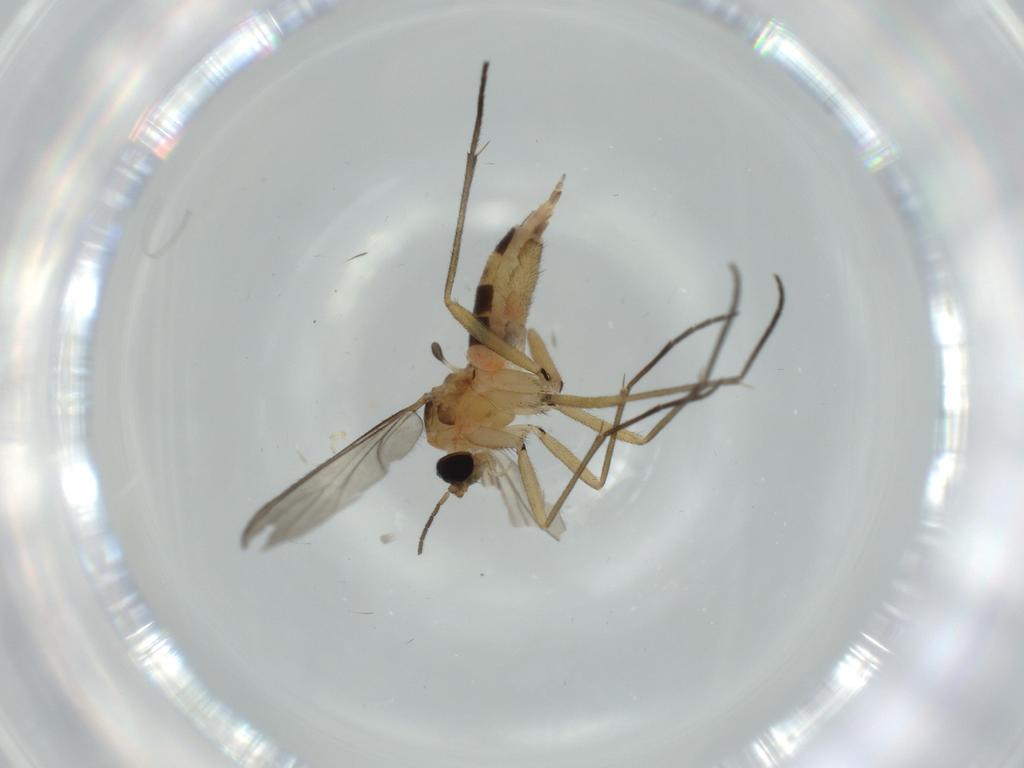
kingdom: Animalia
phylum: Arthropoda
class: Insecta
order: Diptera
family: Sciaridae
